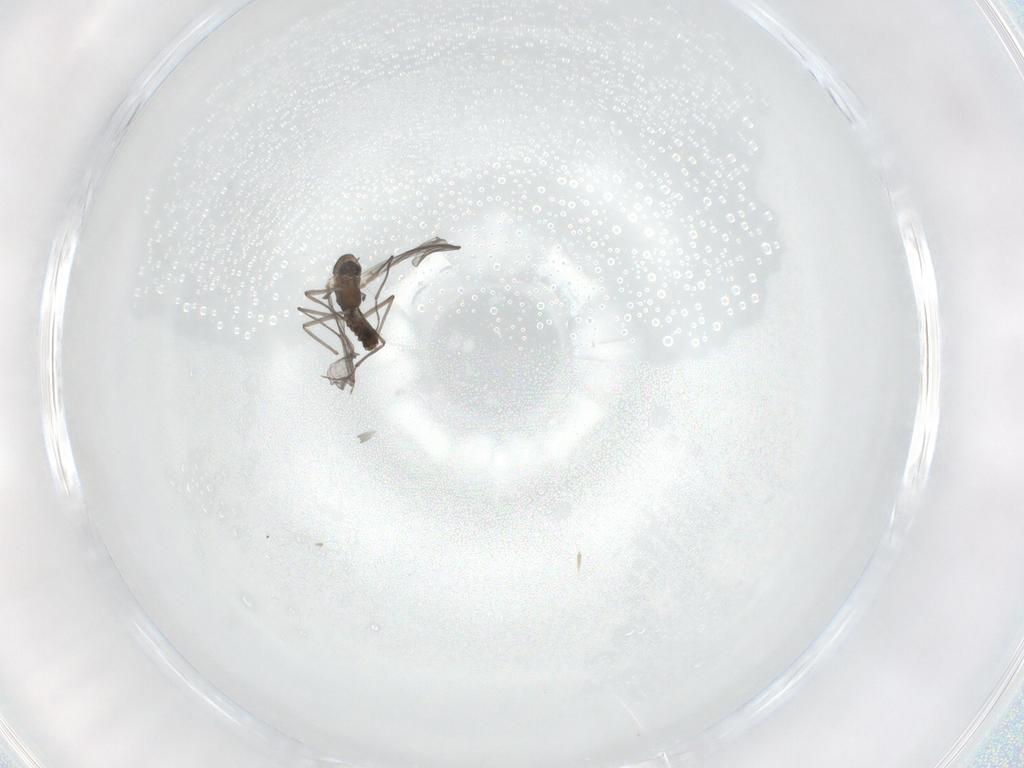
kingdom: Animalia
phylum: Arthropoda
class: Insecta
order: Diptera
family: Chironomidae
